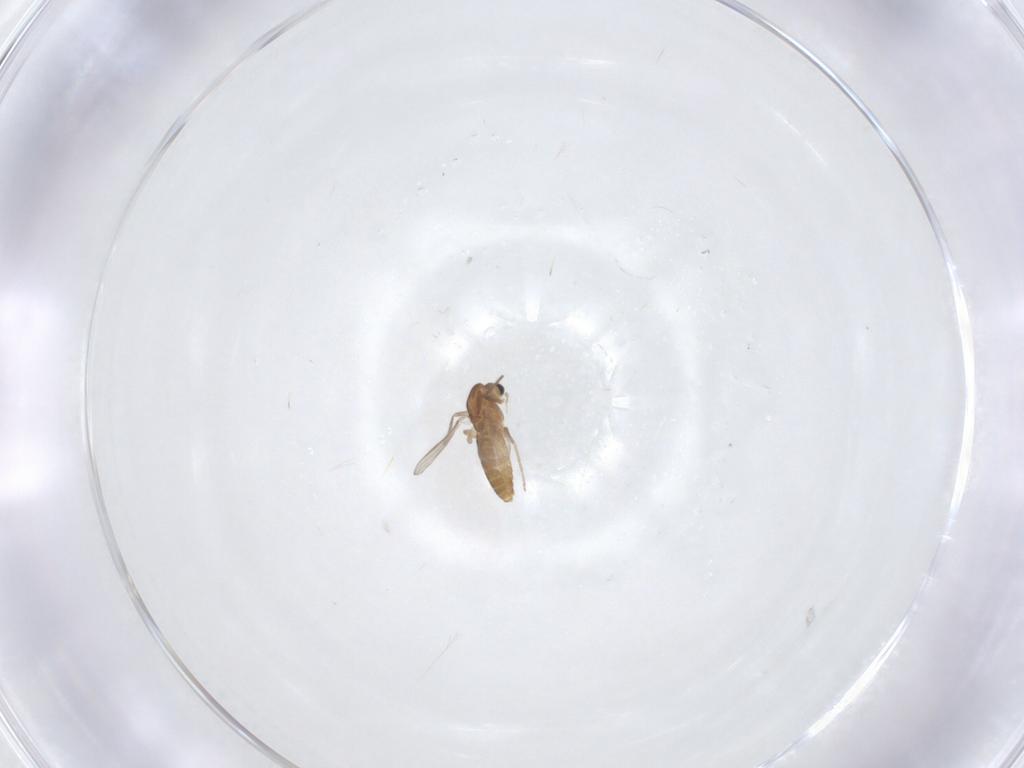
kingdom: Animalia
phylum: Arthropoda
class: Insecta
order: Diptera
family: Chironomidae
